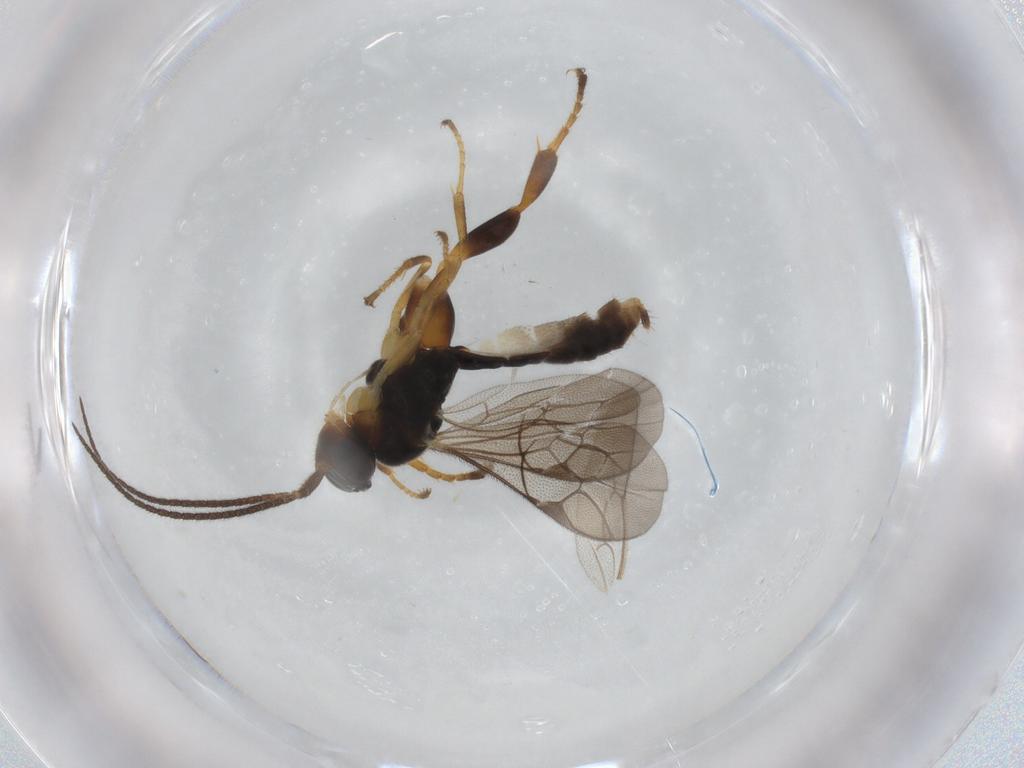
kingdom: Animalia
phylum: Arthropoda
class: Insecta
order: Hymenoptera
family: Ichneumonidae
